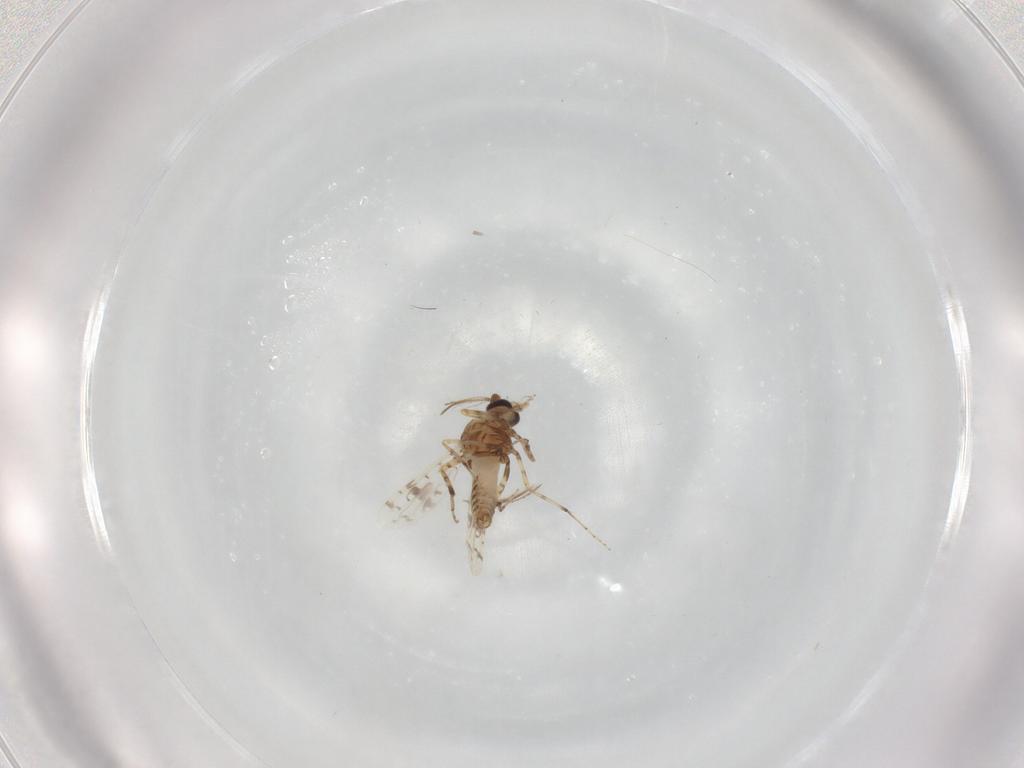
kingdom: Animalia
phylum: Arthropoda
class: Insecta
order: Diptera
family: Ceratopogonidae
